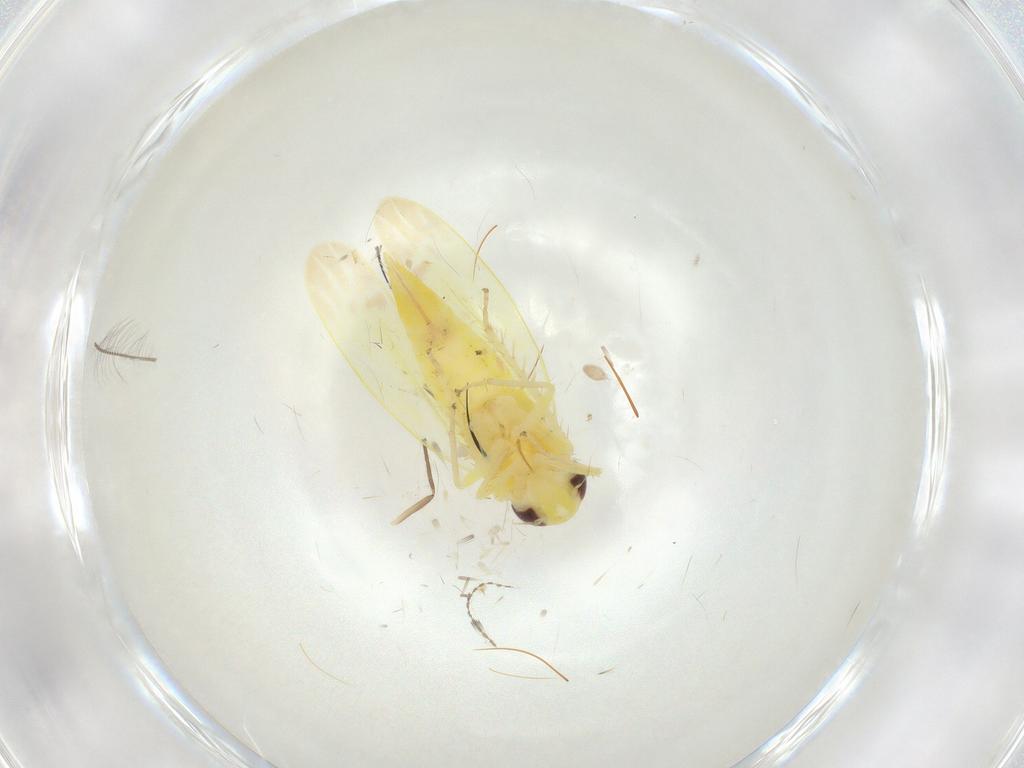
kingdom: Animalia
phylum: Arthropoda
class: Insecta
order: Hemiptera
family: Cicadellidae
